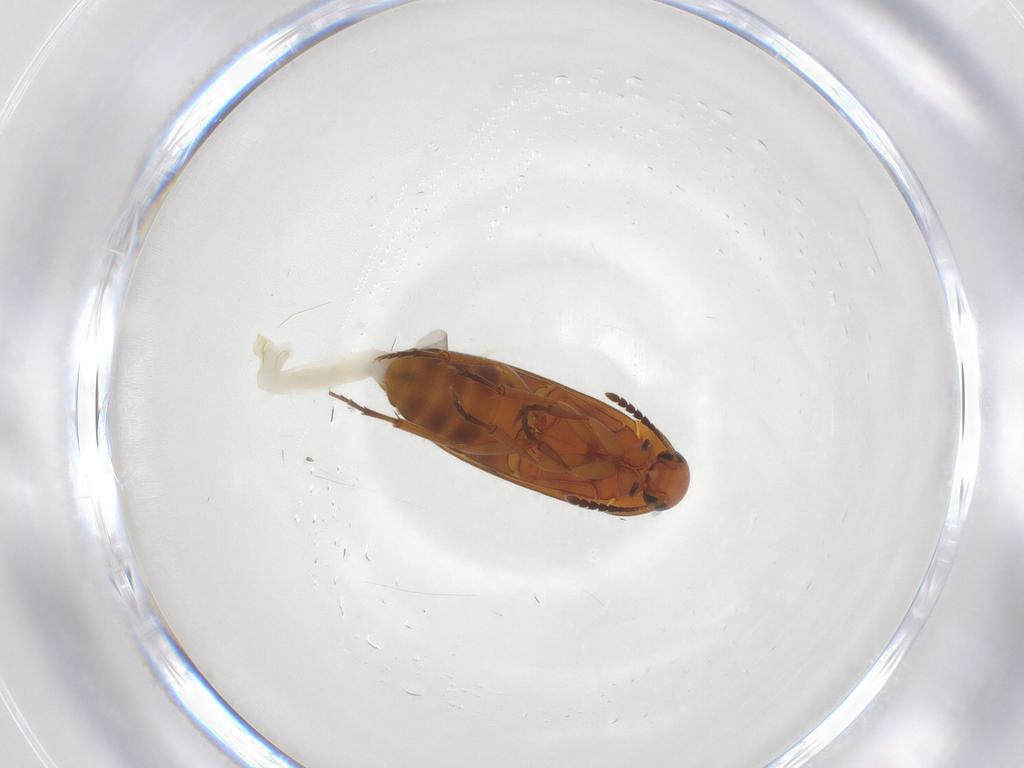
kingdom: Animalia
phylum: Arthropoda
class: Insecta
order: Coleoptera
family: Scraptiidae
